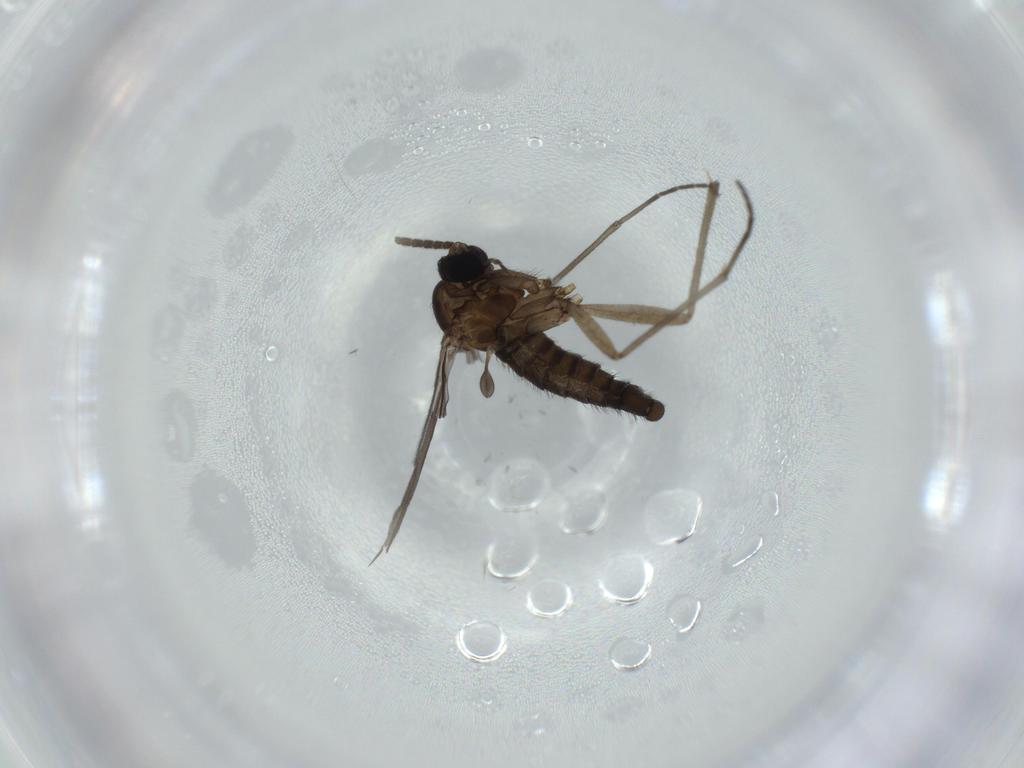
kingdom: Animalia
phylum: Arthropoda
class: Insecta
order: Diptera
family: Sciaridae
